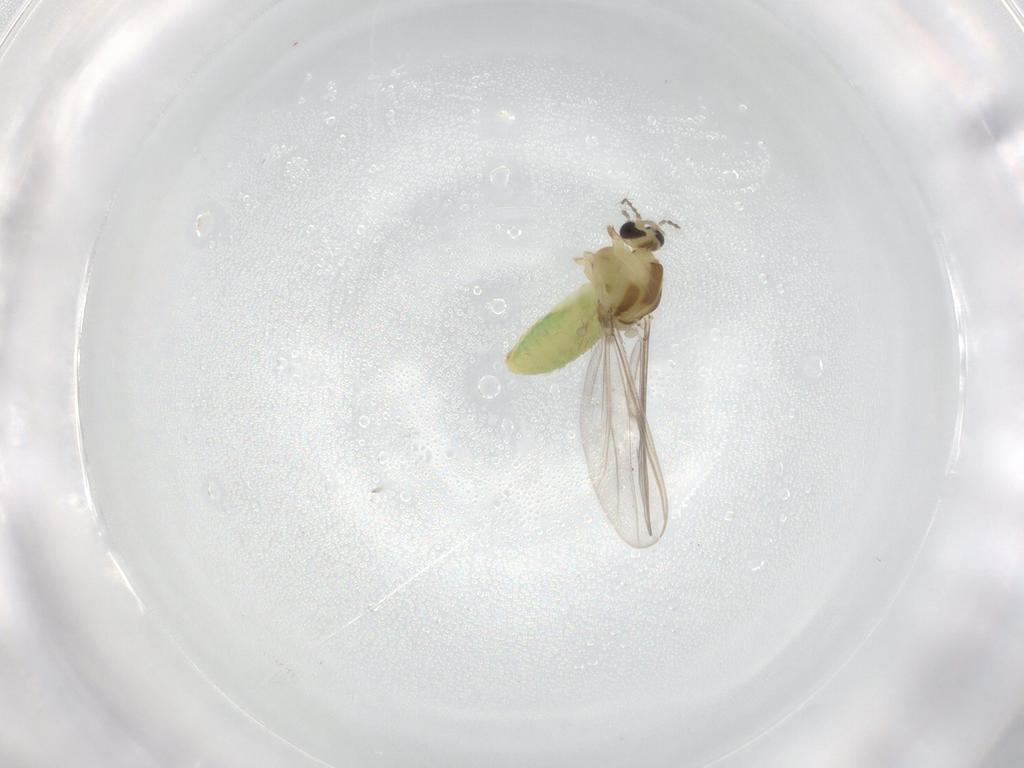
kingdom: Animalia
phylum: Arthropoda
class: Insecta
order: Diptera
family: Chironomidae
